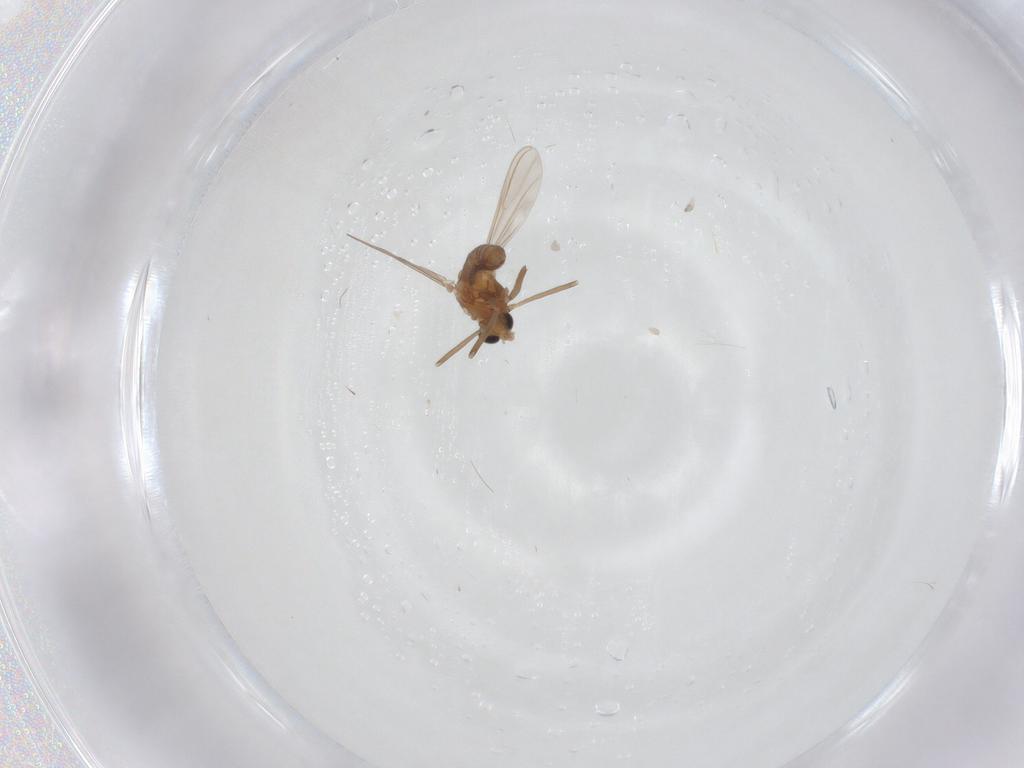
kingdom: Animalia
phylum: Arthropoda
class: Insecta
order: Diptera
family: Chironomidae
